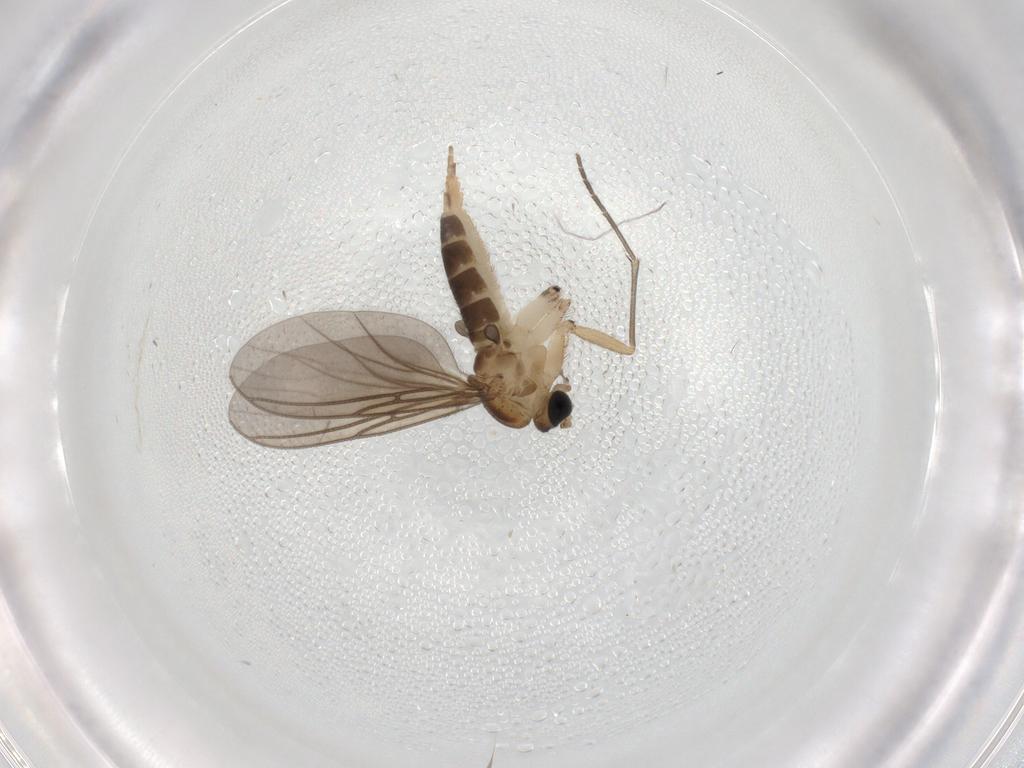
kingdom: Animalia
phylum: Arthropoda
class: Insecta
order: Diptera
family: Sciaridae
